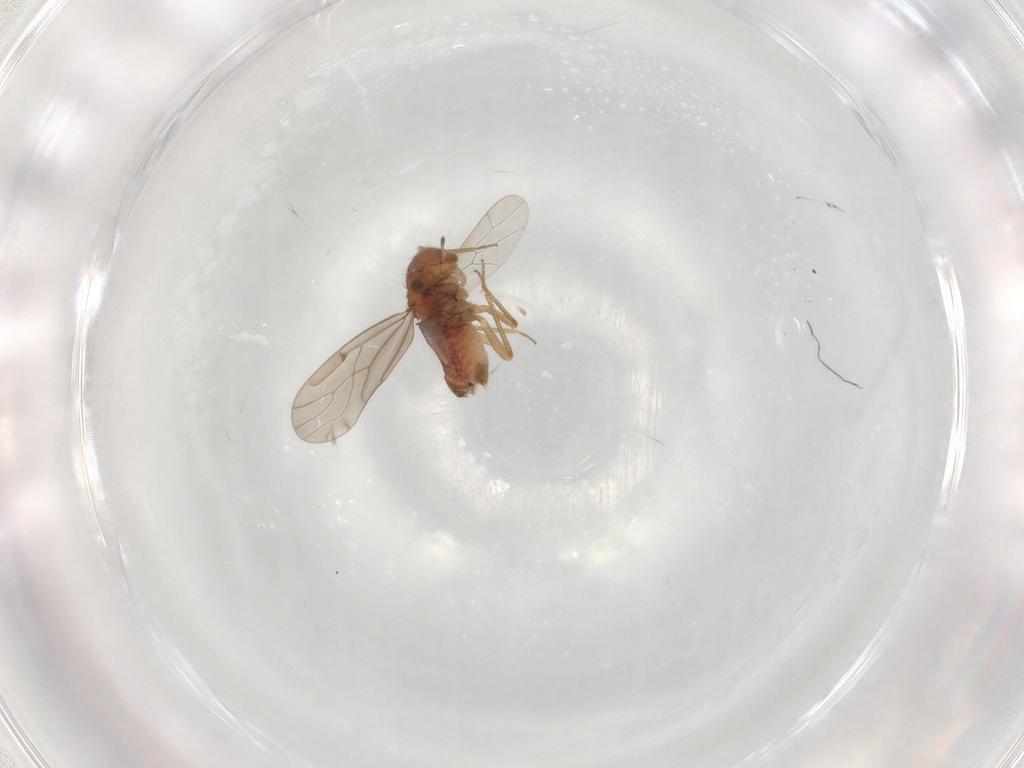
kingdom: Animalia
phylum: Arthropoda
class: Insecta
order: Psocodea
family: Ectopsocidae
